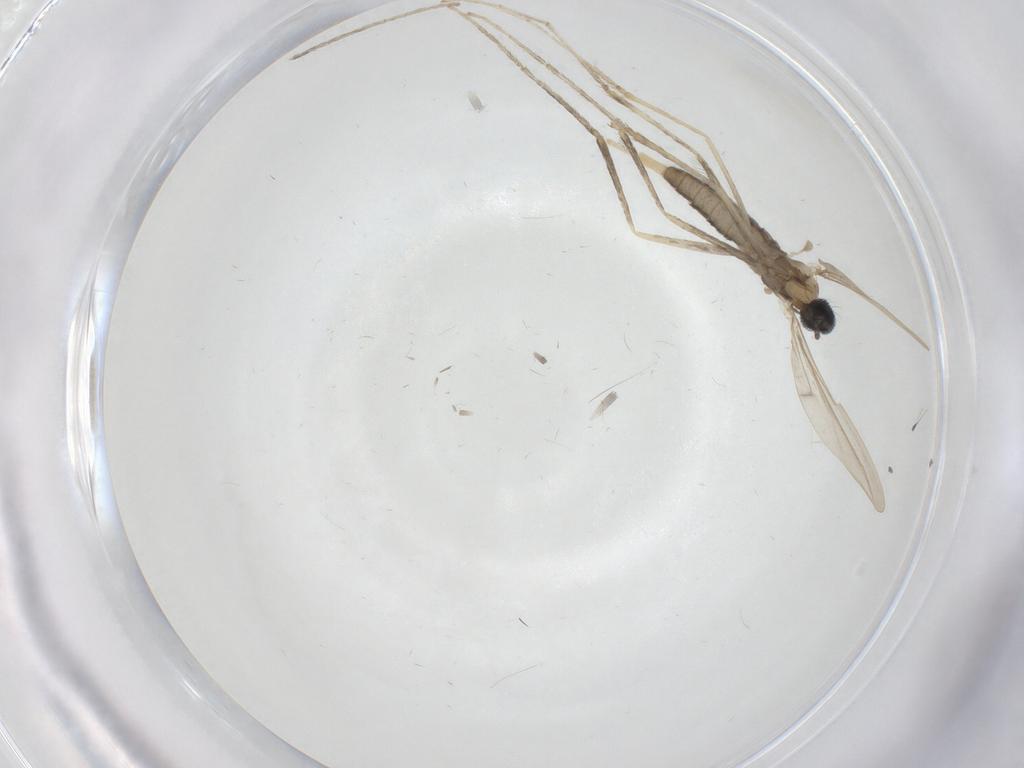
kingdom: Animalia
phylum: Arthropoda
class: Insecta
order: Diptera
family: Cecidomyiidae
